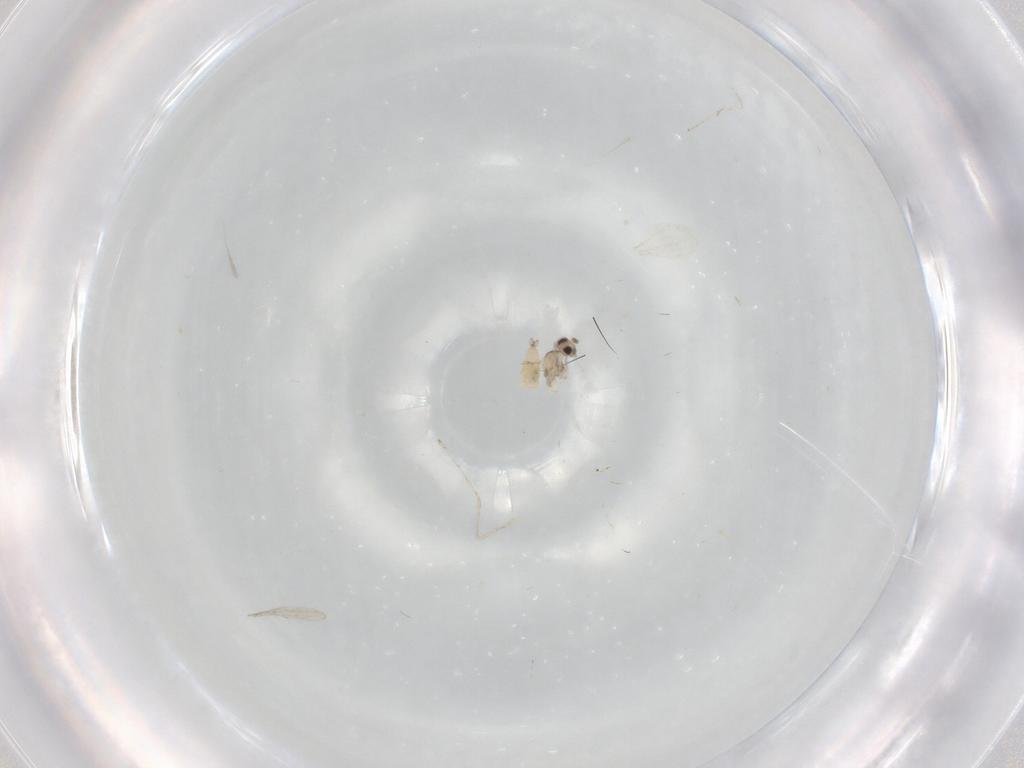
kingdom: Animalia
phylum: Arthropoda
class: Insecta
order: Diptera
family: Cecidomyiidae
